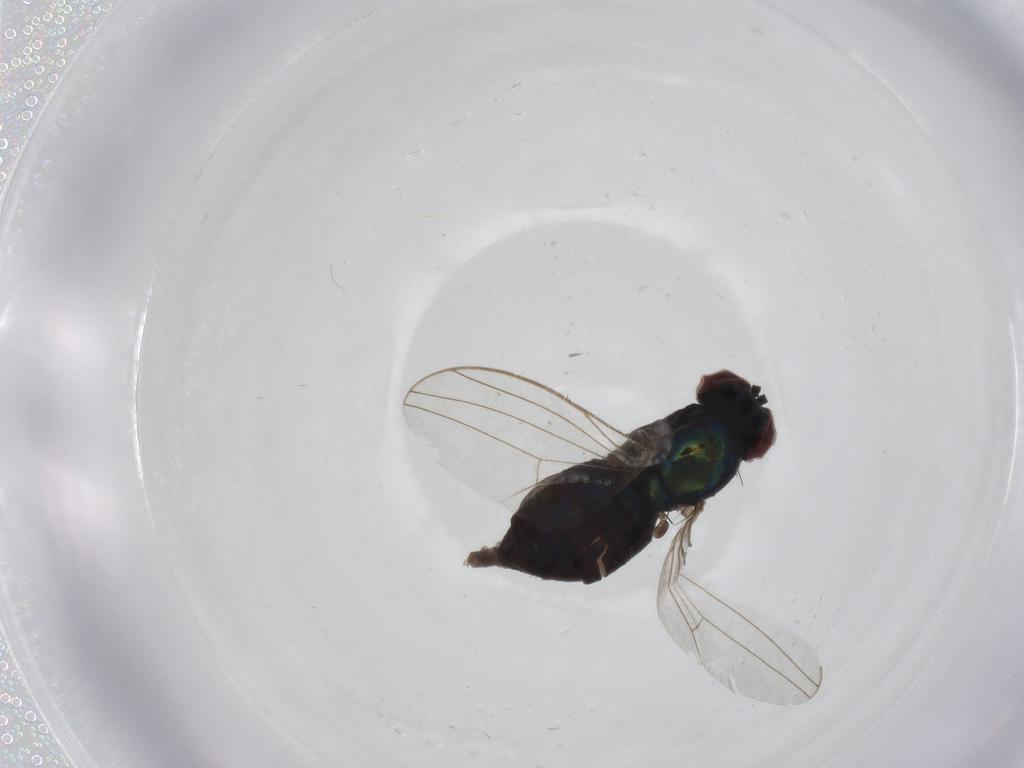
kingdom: Animalia
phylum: Arthropoda
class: Insecta
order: Diptera
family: Dolichopodidae
